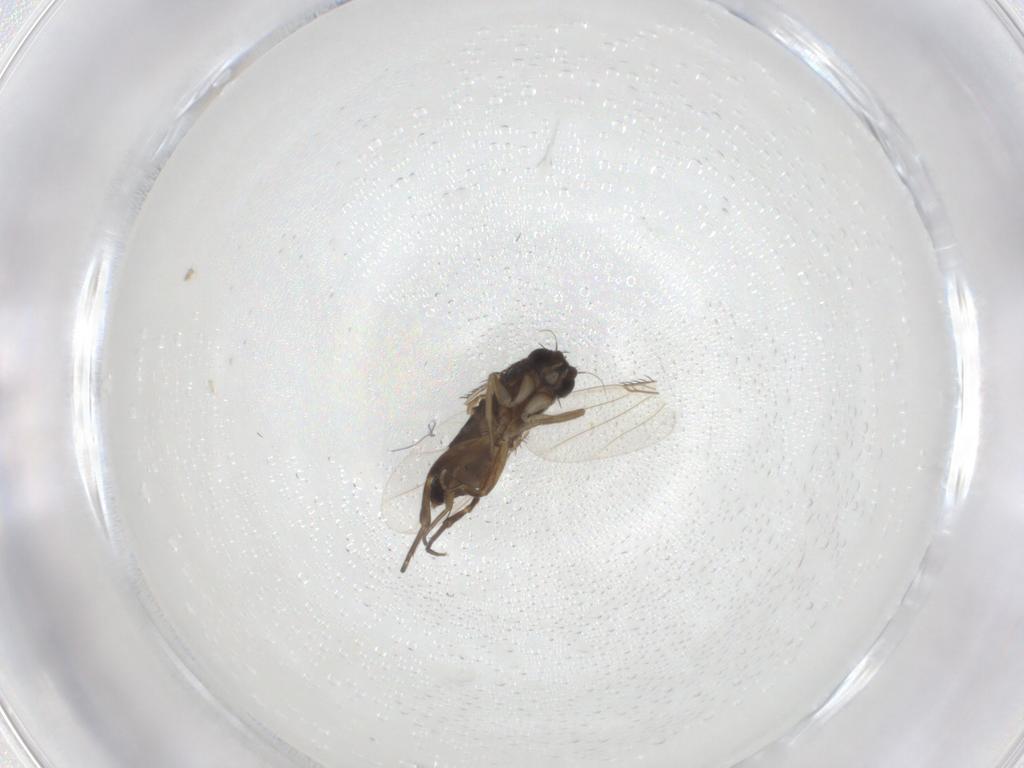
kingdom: Animalia
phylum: Arthropoda
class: Insecta
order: Diptera
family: Phoridae
